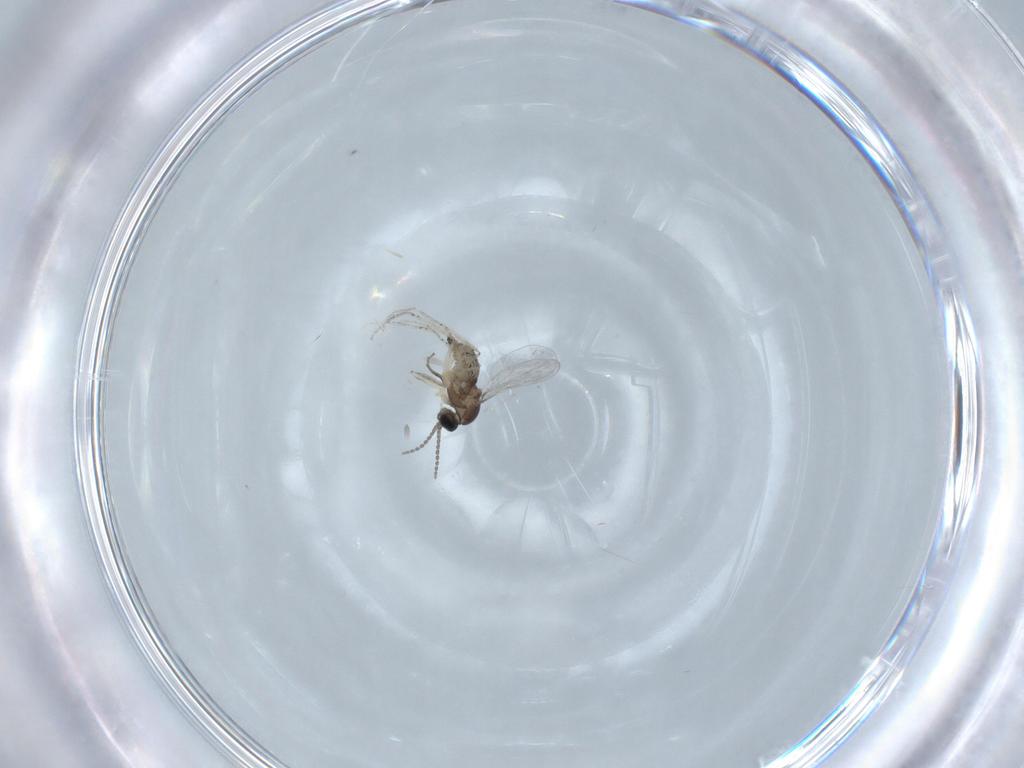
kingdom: Animalia
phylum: Arthropoda
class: Insecta
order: Diptera
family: Cecidomyiidae
